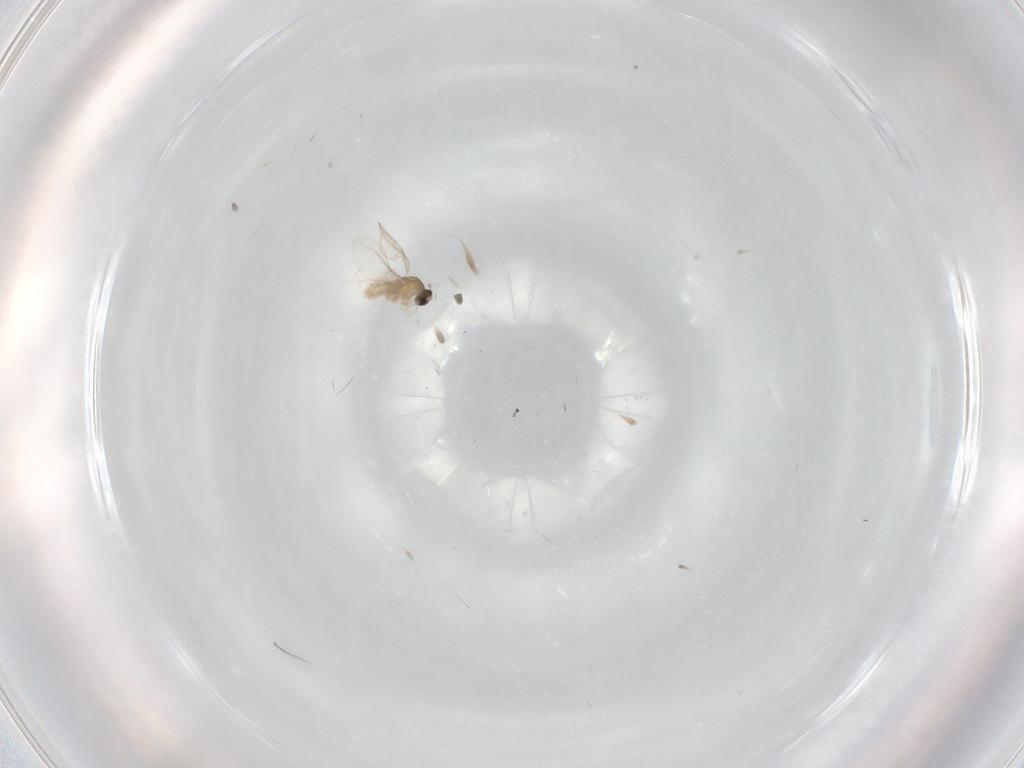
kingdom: Animalia
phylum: Arthropoda
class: Insecta
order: Diptera
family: Cecidomyiidae
